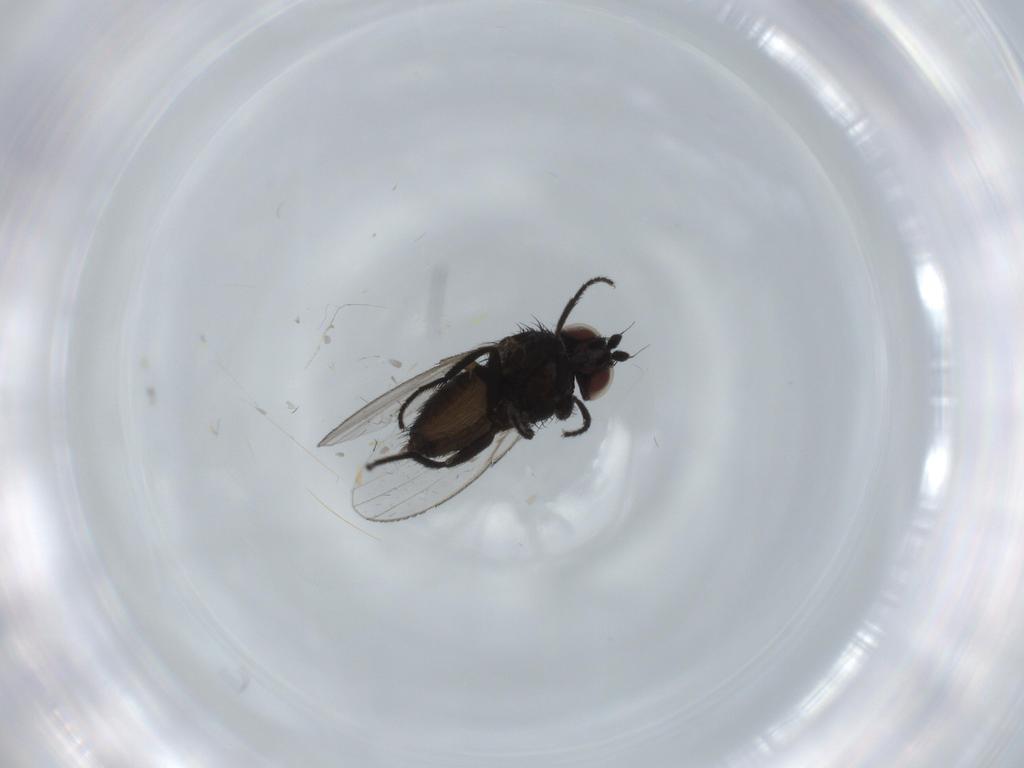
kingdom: Animalia
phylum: Arthropoda
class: Insecta
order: Diptera
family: Milichiidae
